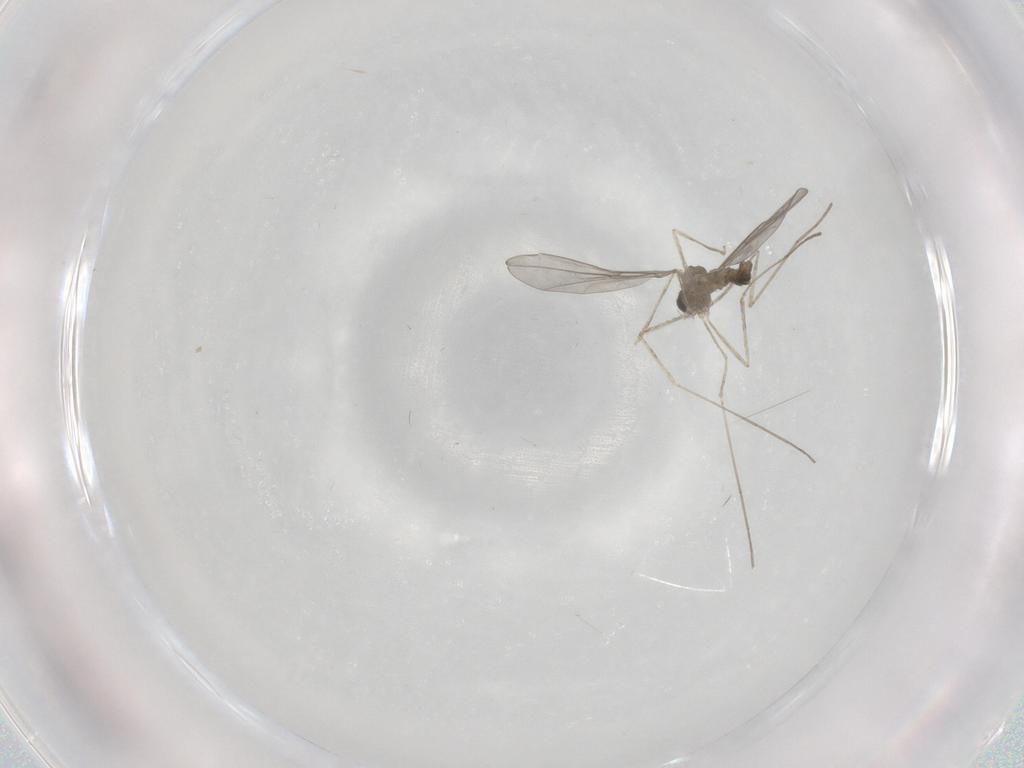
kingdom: Animalia
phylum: Arthropoda
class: Insecta
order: Diptera
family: Cecidomyiidae
